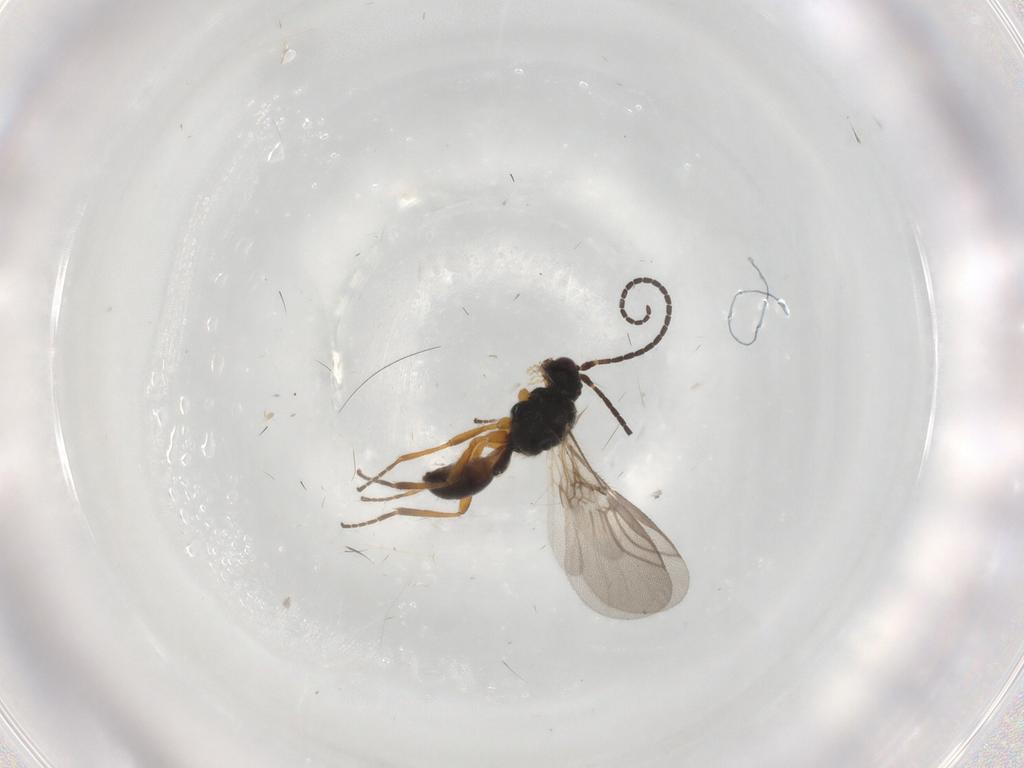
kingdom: Animalia
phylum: Arthropoda
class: Insecta
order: Hymenoptera
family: Braconidae
